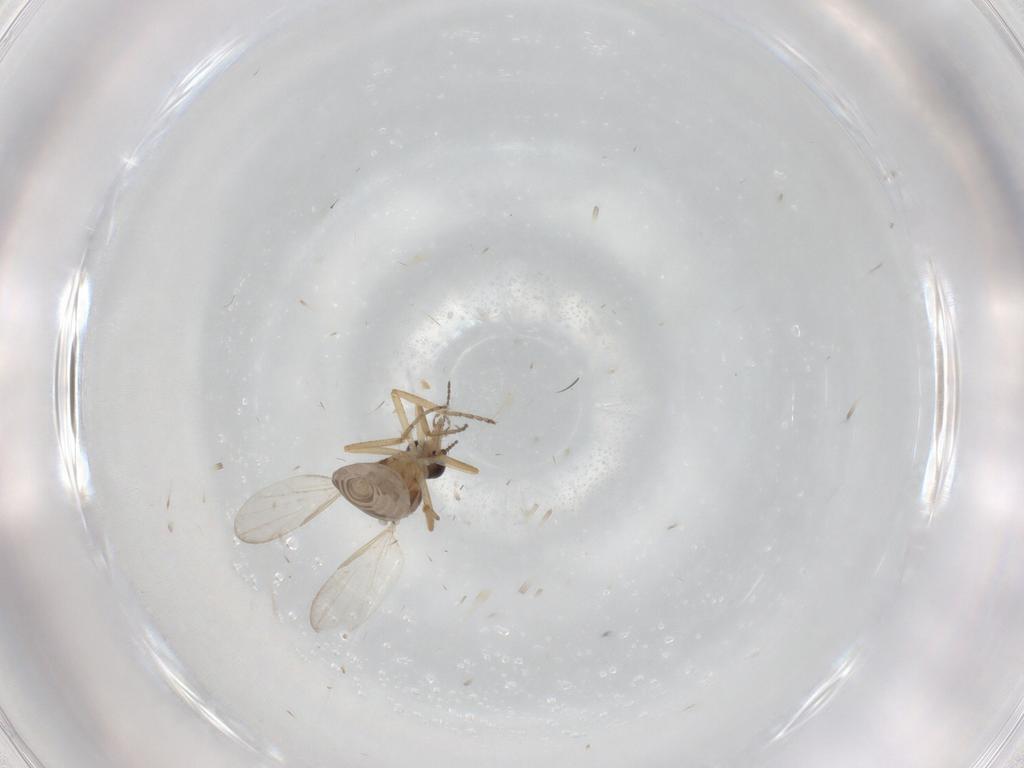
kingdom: Animalia
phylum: Arthropoda
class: Insecta
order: Diptera
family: Ceratopogonidae
